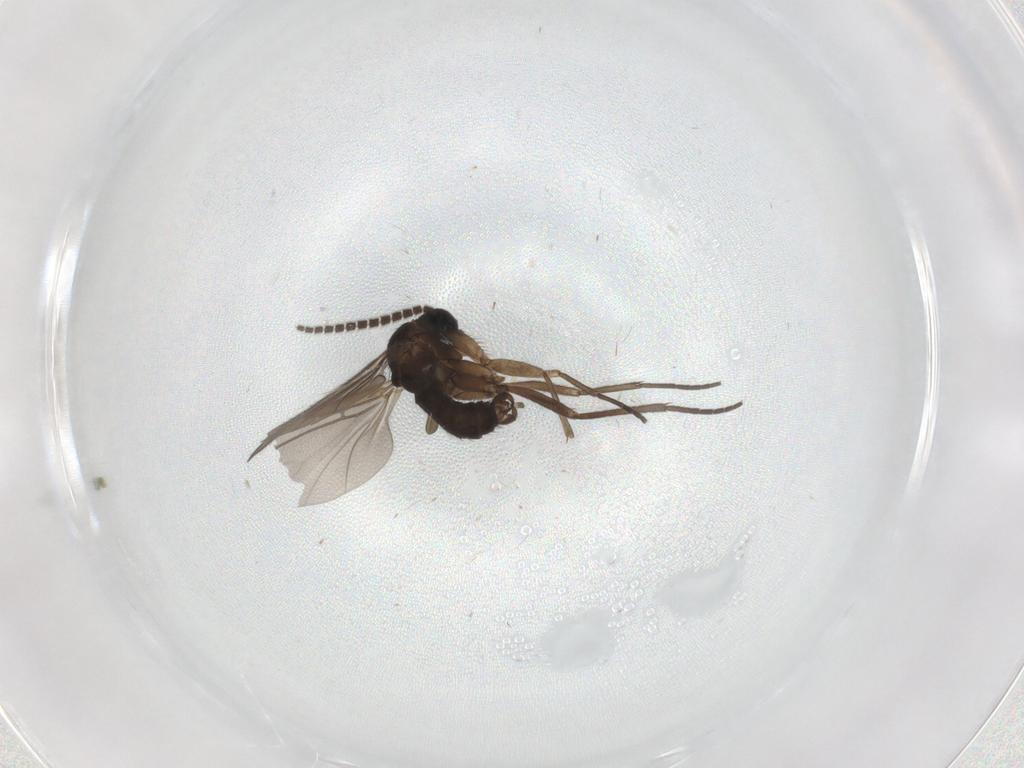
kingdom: Animalia
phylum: Arthropoda
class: Insecta
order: Diptera
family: Sciaridae
